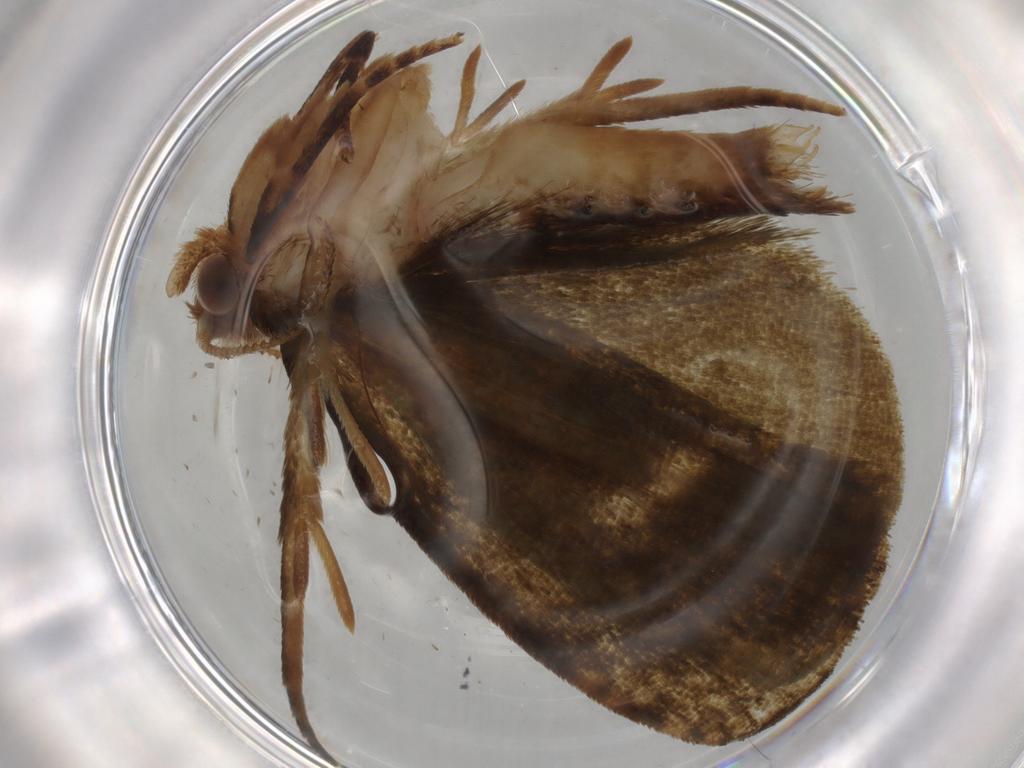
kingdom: Animalia
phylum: Arthropoda
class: Insecta
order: Lepidoptera
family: Geometridae
